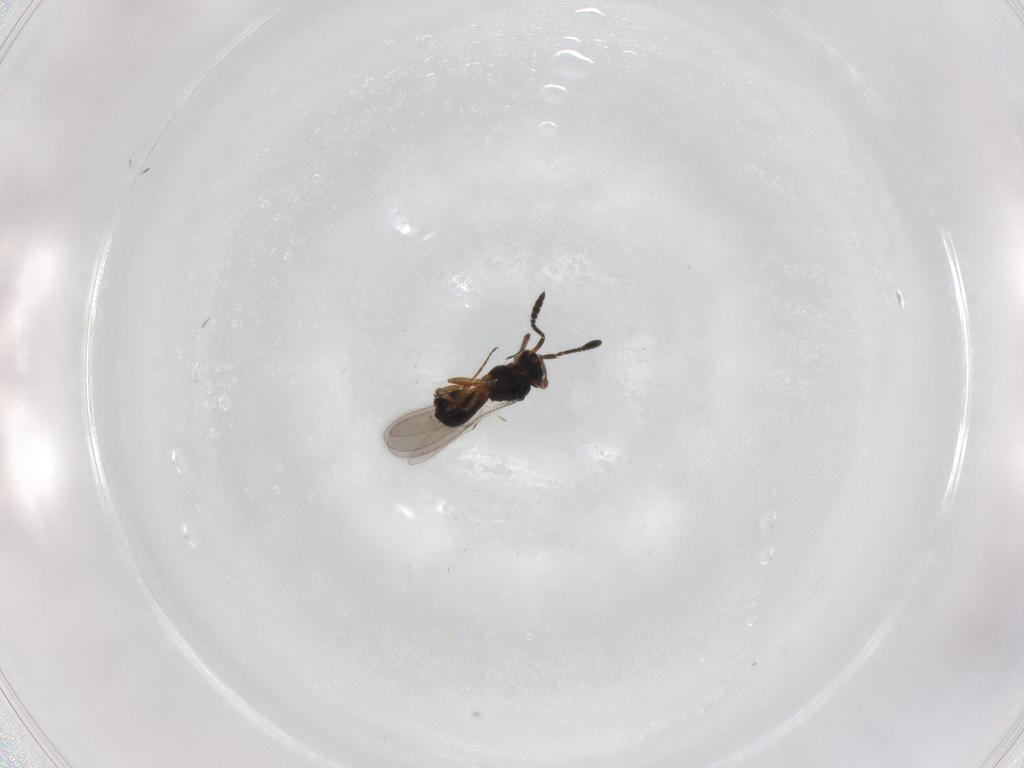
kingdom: Animalia
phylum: Arthropoda
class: Insecta
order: Hymenoptera
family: Scelionidae
